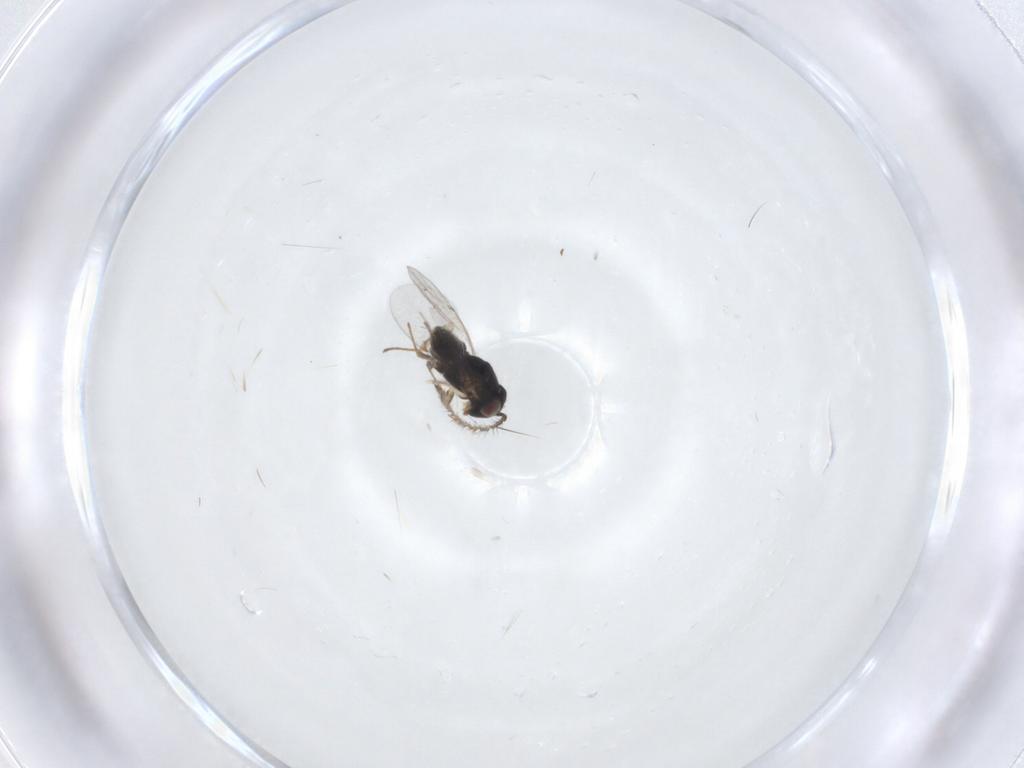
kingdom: Animalia
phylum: Arthropoda
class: Insecta
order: Hymenoptera
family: Encyrtidae
